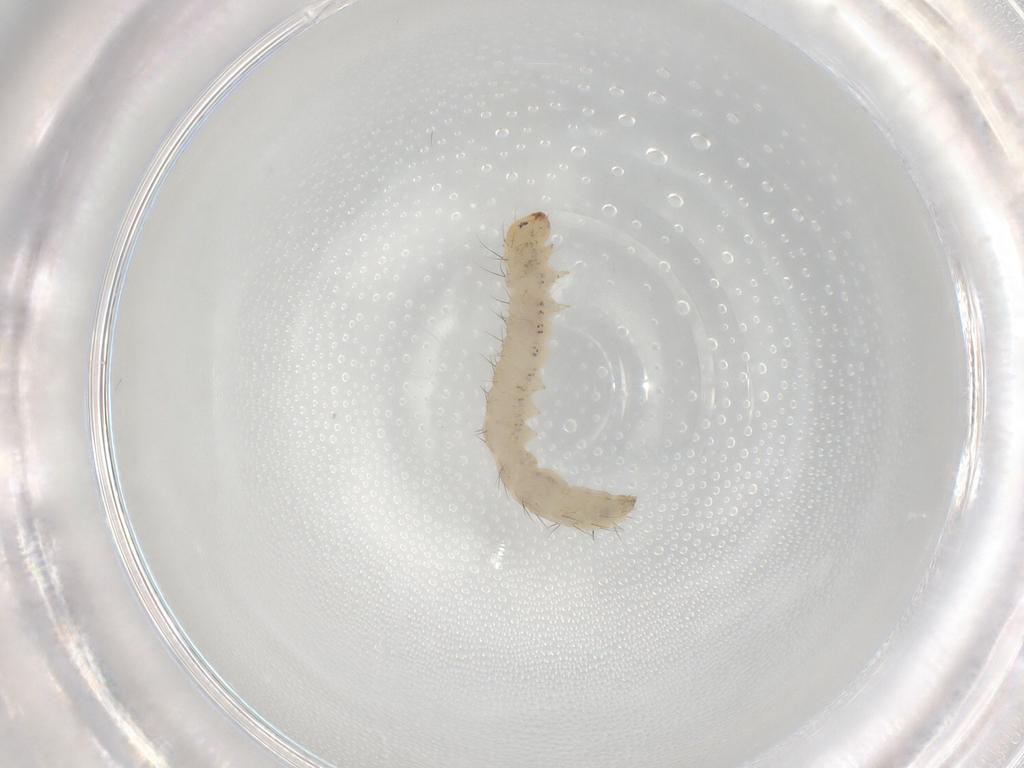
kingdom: Animalia
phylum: Arthropoda
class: Insecta
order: Lepidoptera
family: Bucculatricidae
